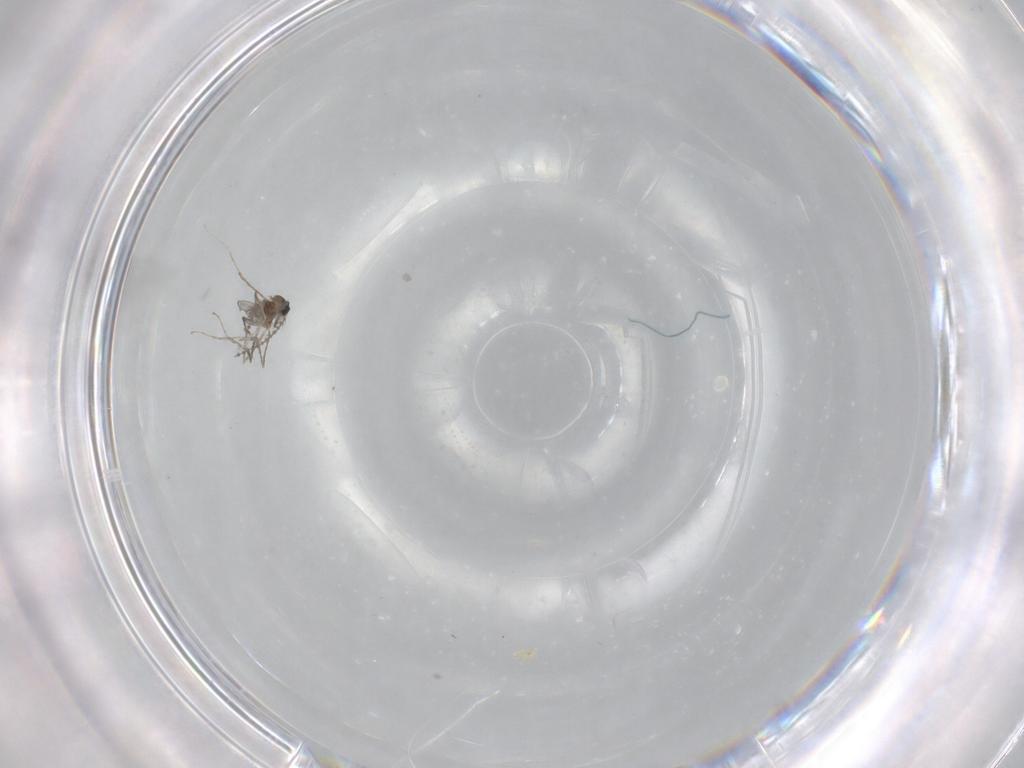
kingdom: Animalia
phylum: Arthropoda
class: Insecta
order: Diptera
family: Cecidomyiidae
